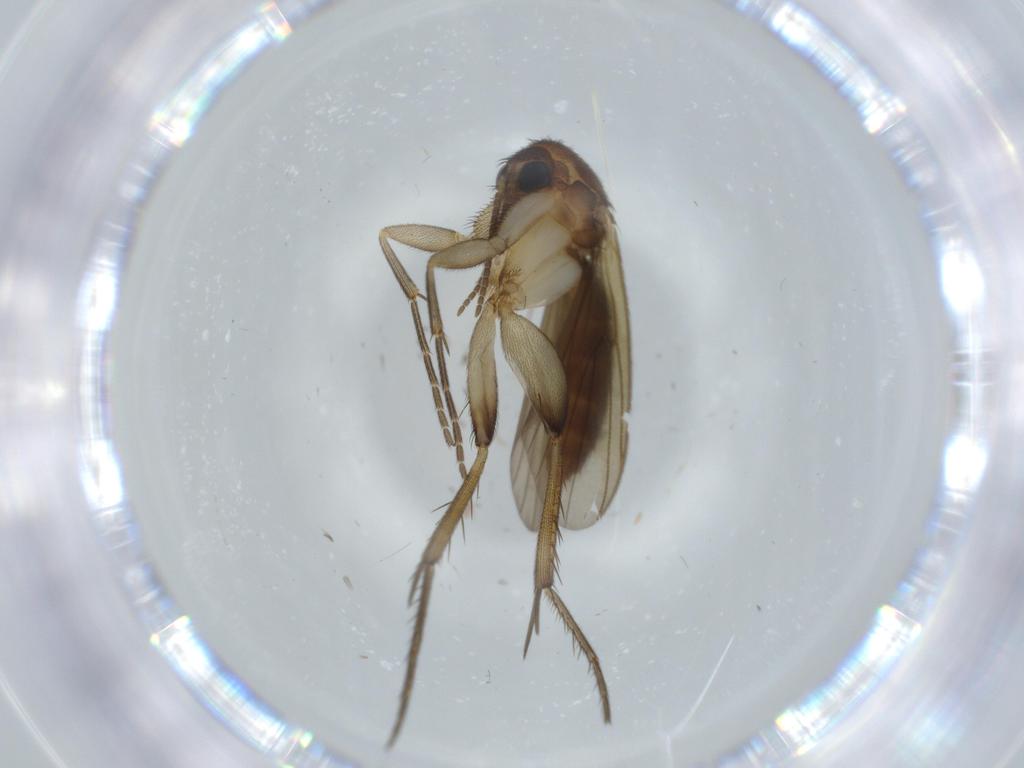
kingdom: Animalia
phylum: Arthropoda
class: Insecta
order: Diptera
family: Mycetophilidae
